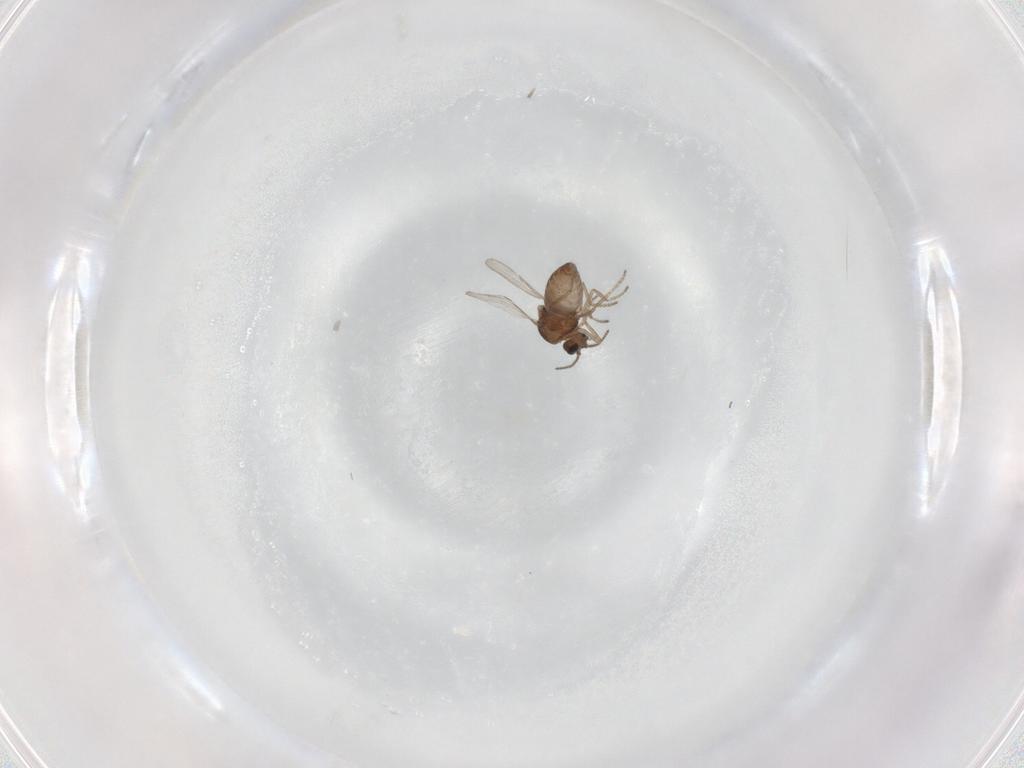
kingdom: Animalia
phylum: Arthropoda
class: Insecta
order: Diptera
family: Ceratopogonidae
